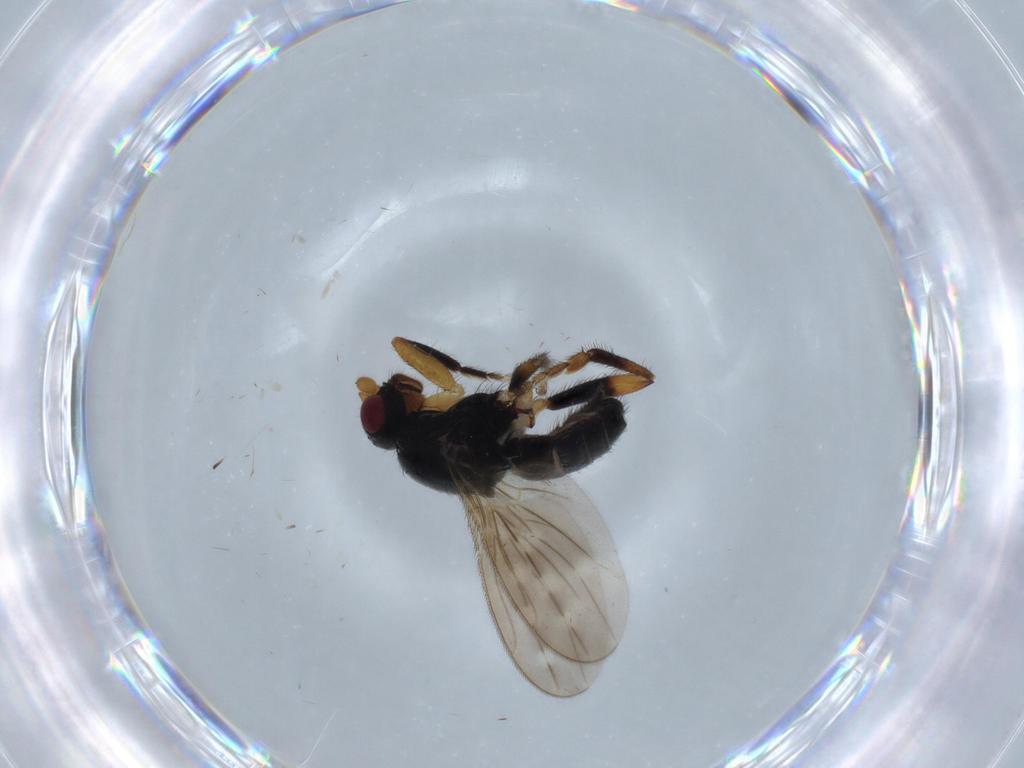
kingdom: Animalia
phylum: Arthropoda
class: Insecta
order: Diptera
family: Sphaeroceridae
